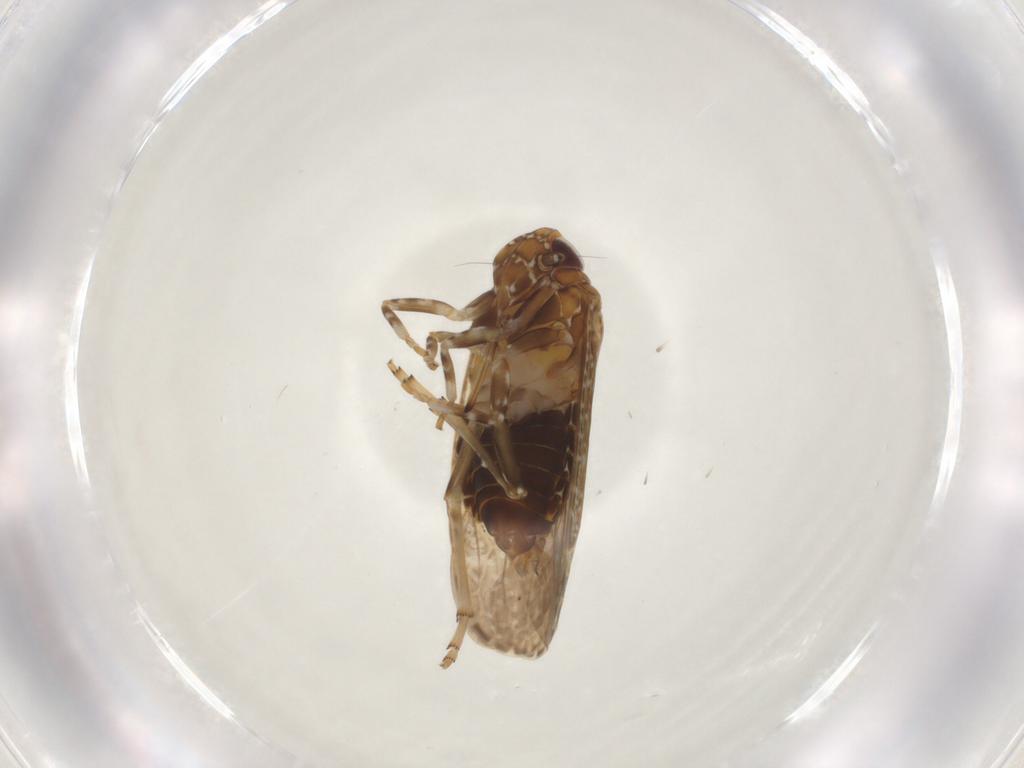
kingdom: Animalia
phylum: Arthropoda
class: Insecta
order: Hemiptera
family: Achilidae
